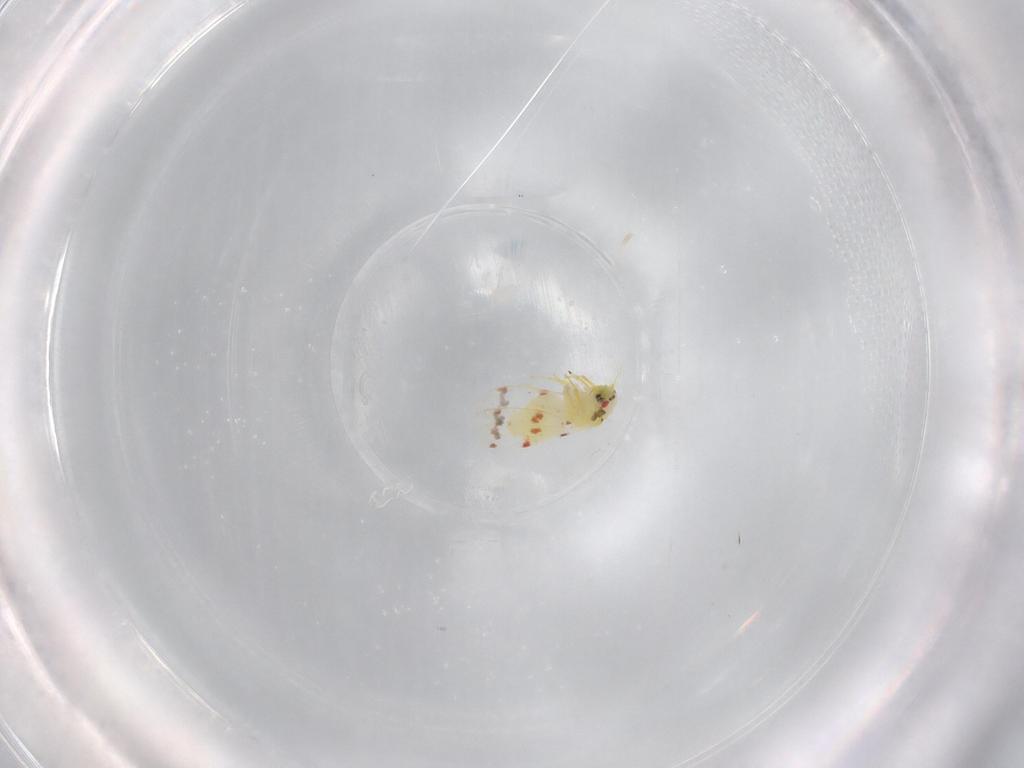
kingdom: Animalia
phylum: Arthropoda
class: Insecta
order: Hemiptera
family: Aleyrodidae
